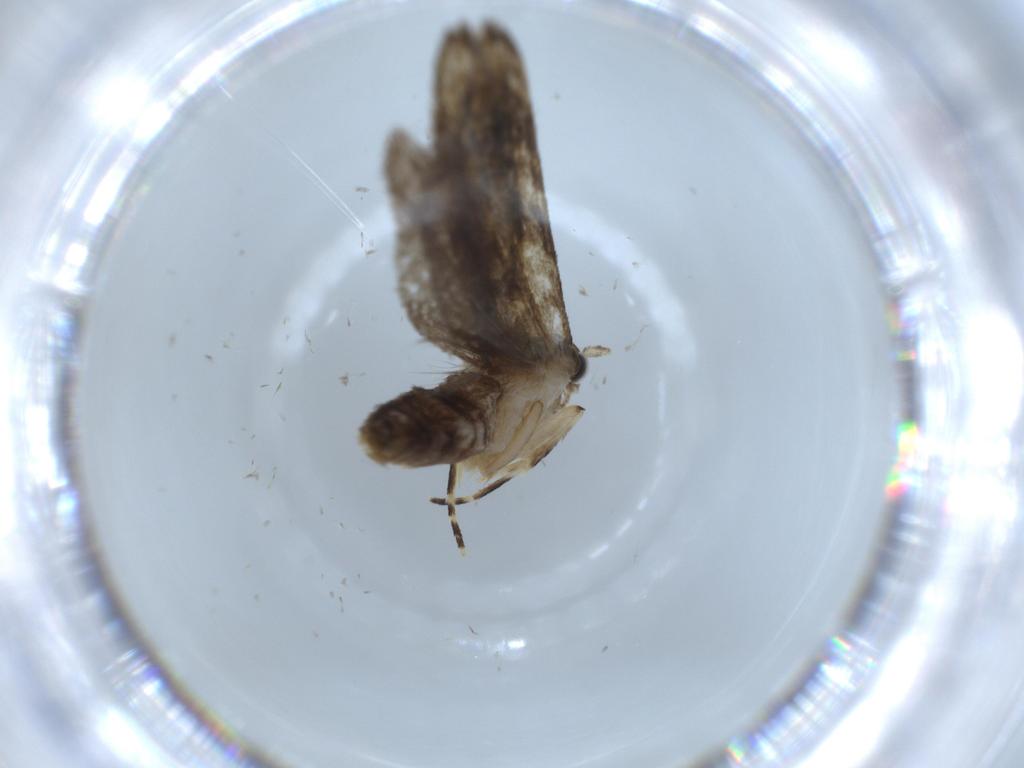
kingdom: Animalia
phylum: Arthropoda
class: Insecta
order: Lepidoptera
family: Tineidae
